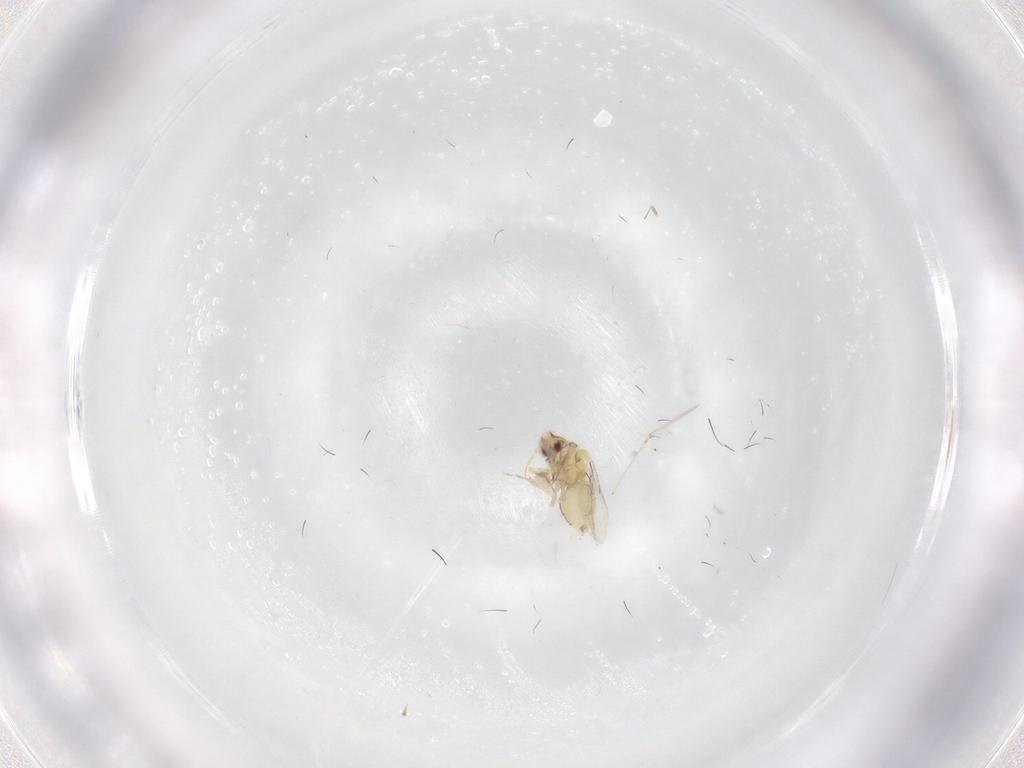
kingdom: Animalia
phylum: Arthropoda
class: Insecta
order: Hemiptera
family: Aleyrodidae
